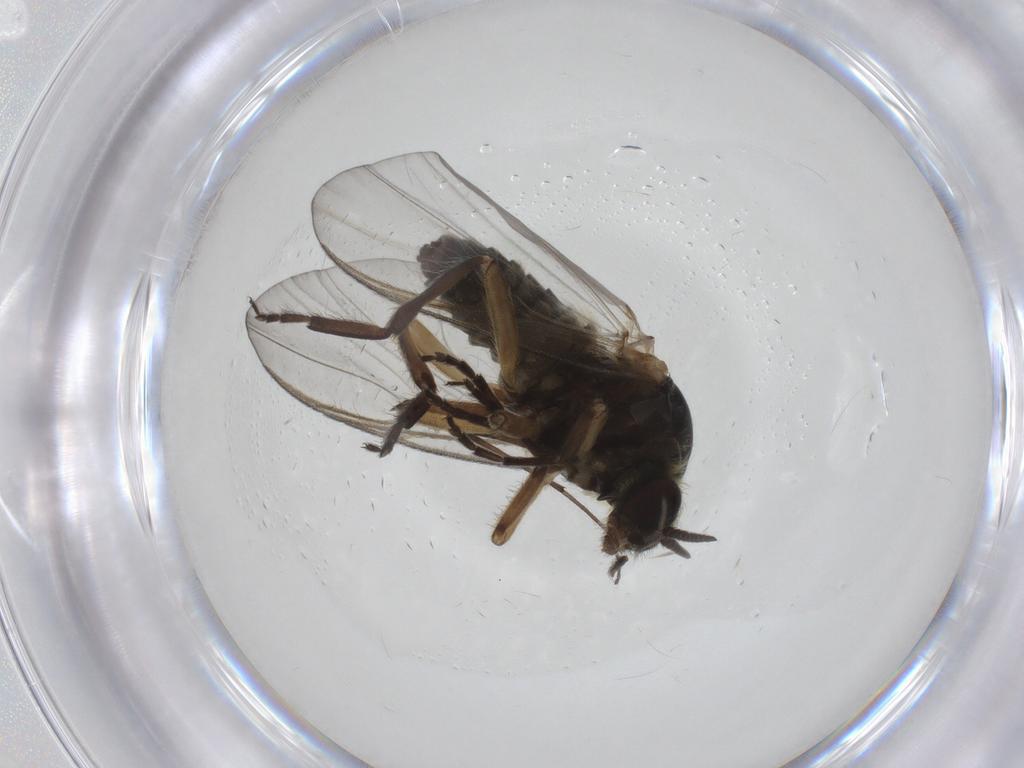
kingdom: Animalia
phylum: Arthropoda
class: Insecta
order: Diptera
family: Simuliidae
